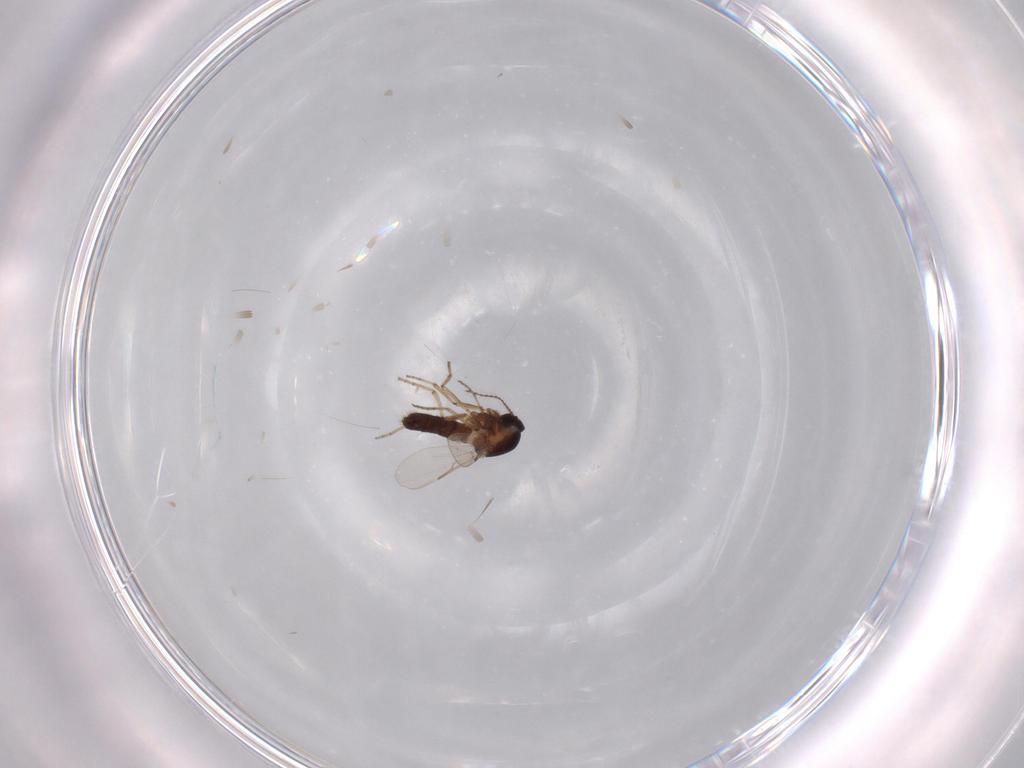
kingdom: Animalia
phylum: Arthropoda
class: Insecta
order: Diptera
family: Ceratopogonidae
